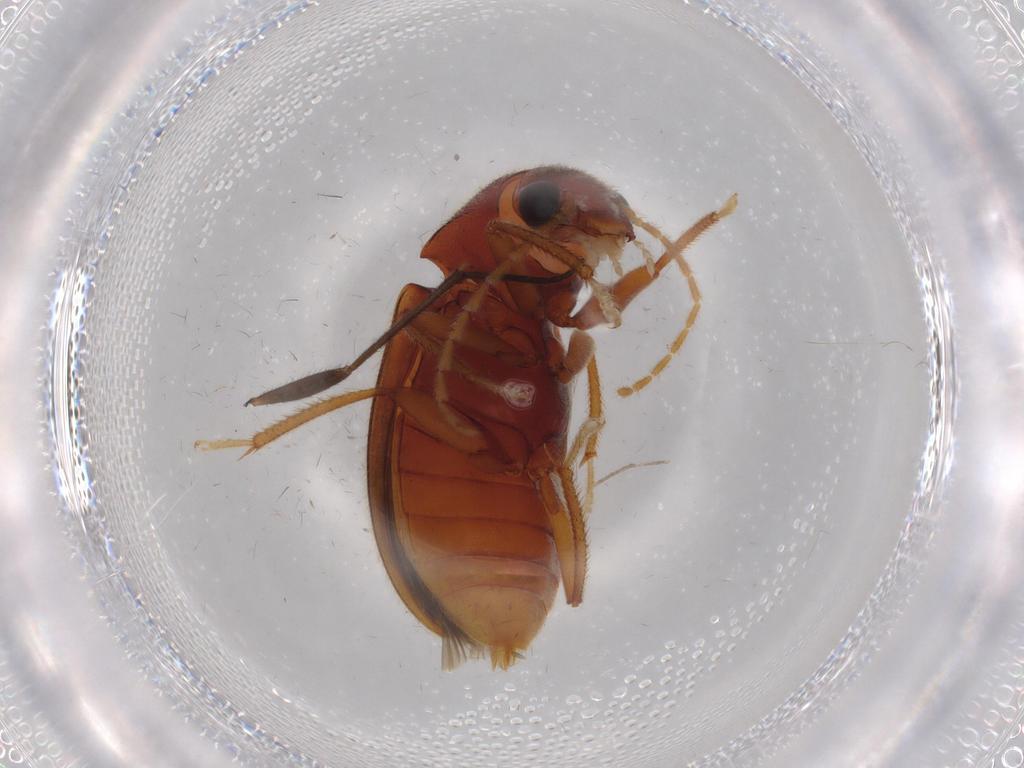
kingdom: Animalia
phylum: Arthropoda
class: Insecta
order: Coleoptera
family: Ptilodactylidae
